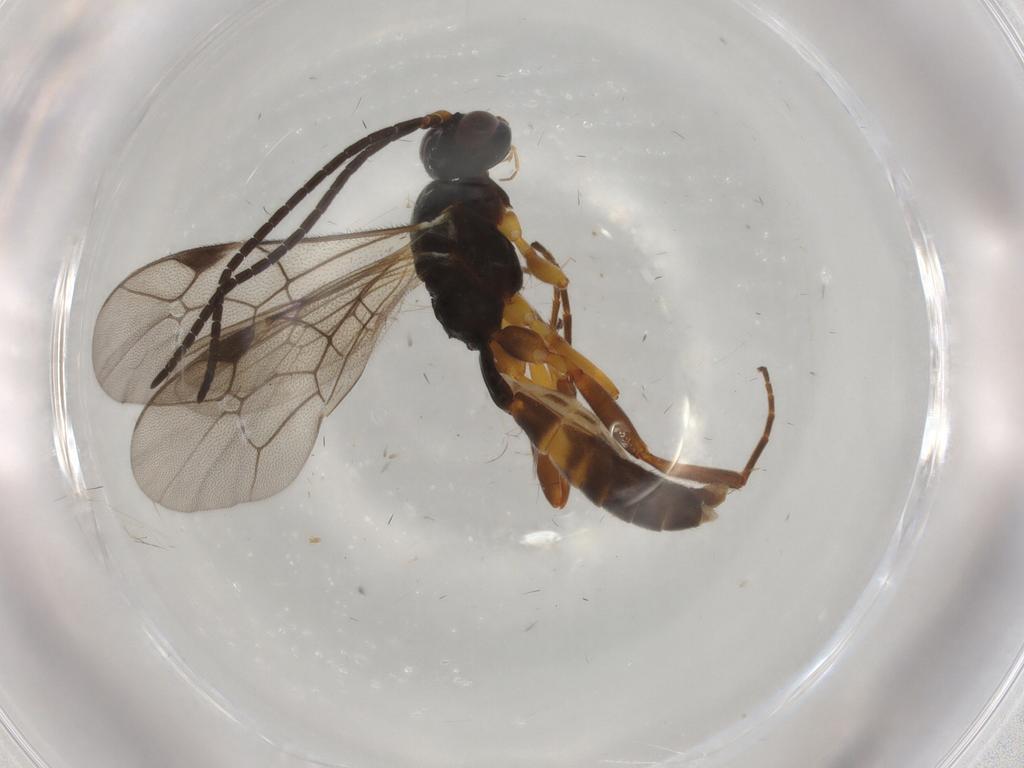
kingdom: Animalia
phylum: Arthropoda
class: Insecta
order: Hymenoptera
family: Ichneumonidae
